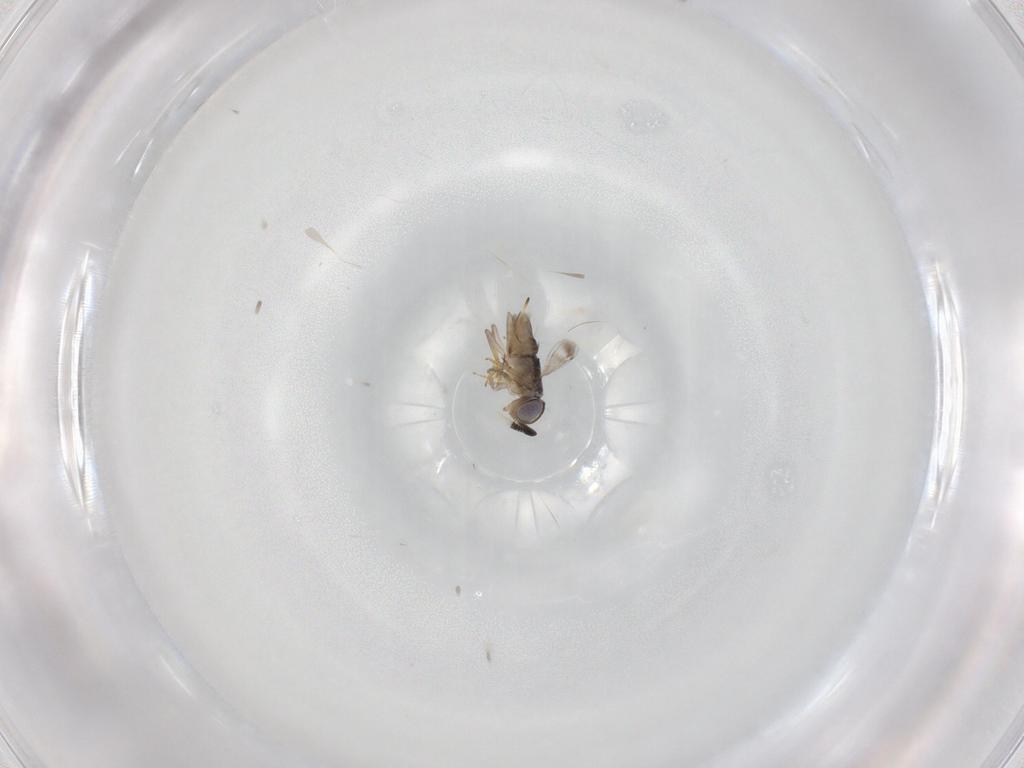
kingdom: Animalia
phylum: Arthropoda
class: Insecta
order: Hymenoptera
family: Encyrtidae
